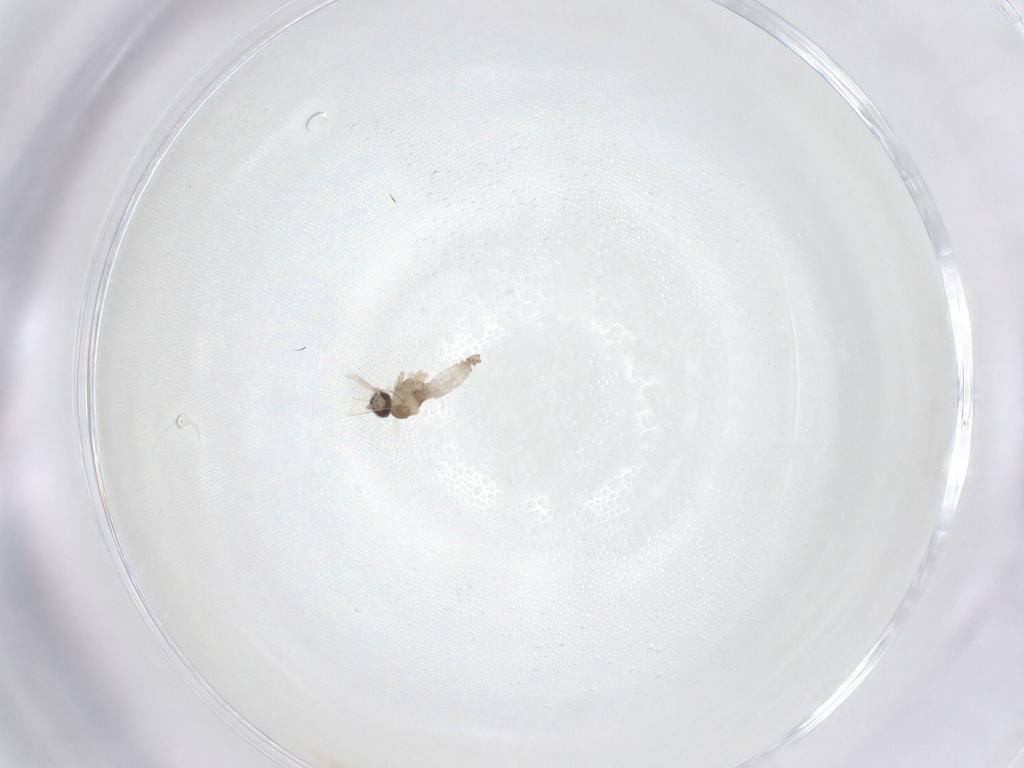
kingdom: Animalia
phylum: Arthropoda
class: Insecta
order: Diptera
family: Cecidomyiidae
